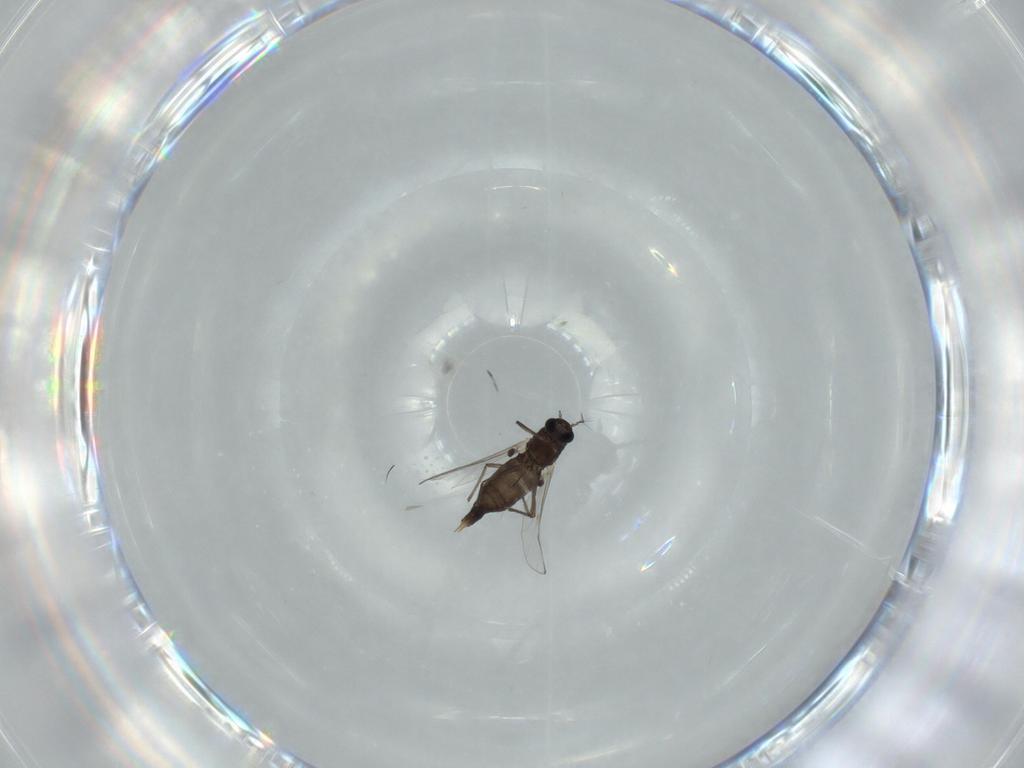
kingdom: Animalia
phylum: Arthropoda
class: Insecta
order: Diptera
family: Chironomidae
